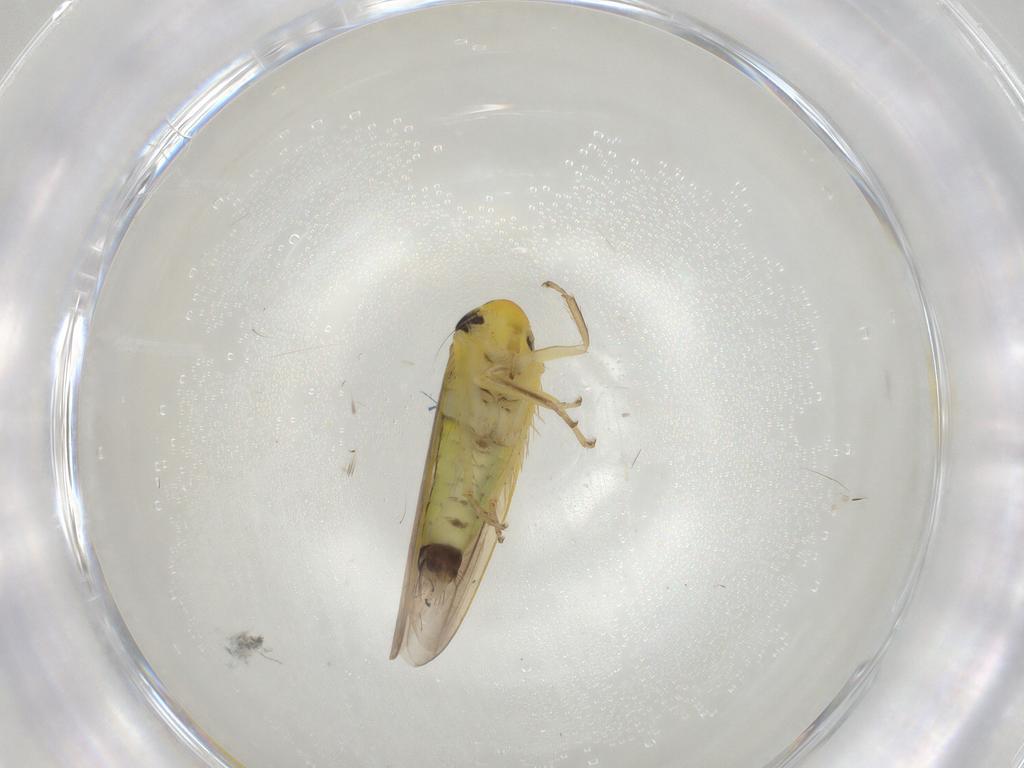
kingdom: Animalia
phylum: Arthropoda
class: Insecta
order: Hemiptera
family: Cicadellidae
